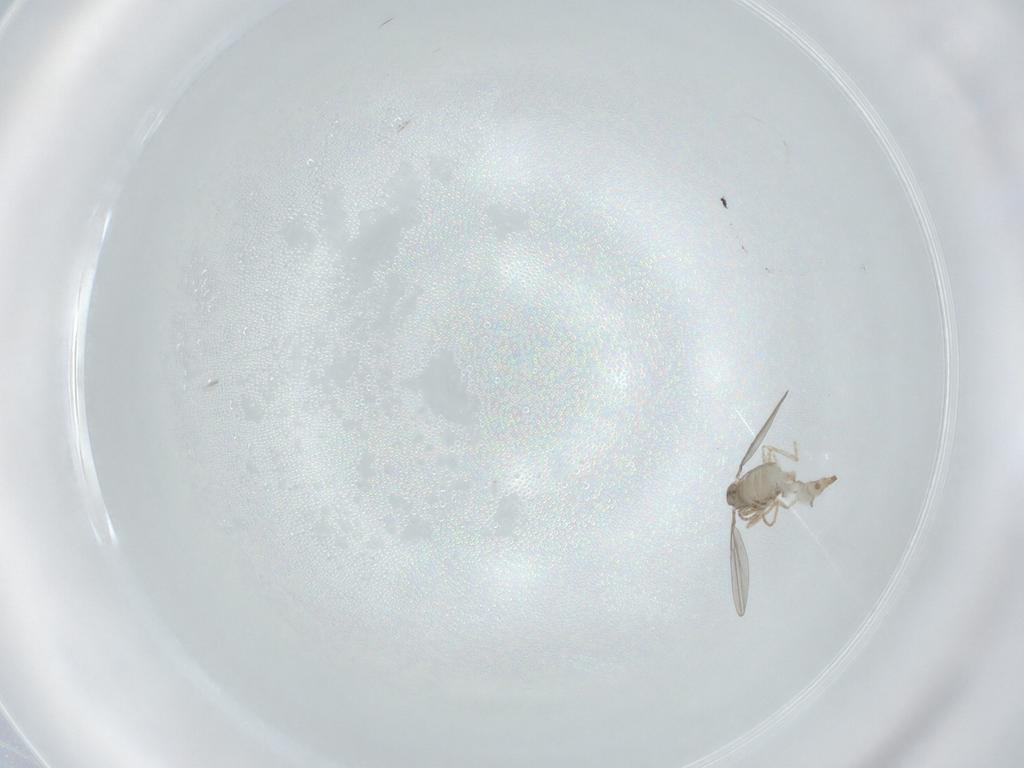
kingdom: Animalia
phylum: Arthropoda
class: Insecta
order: Diptera
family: Cecidomyiidae
